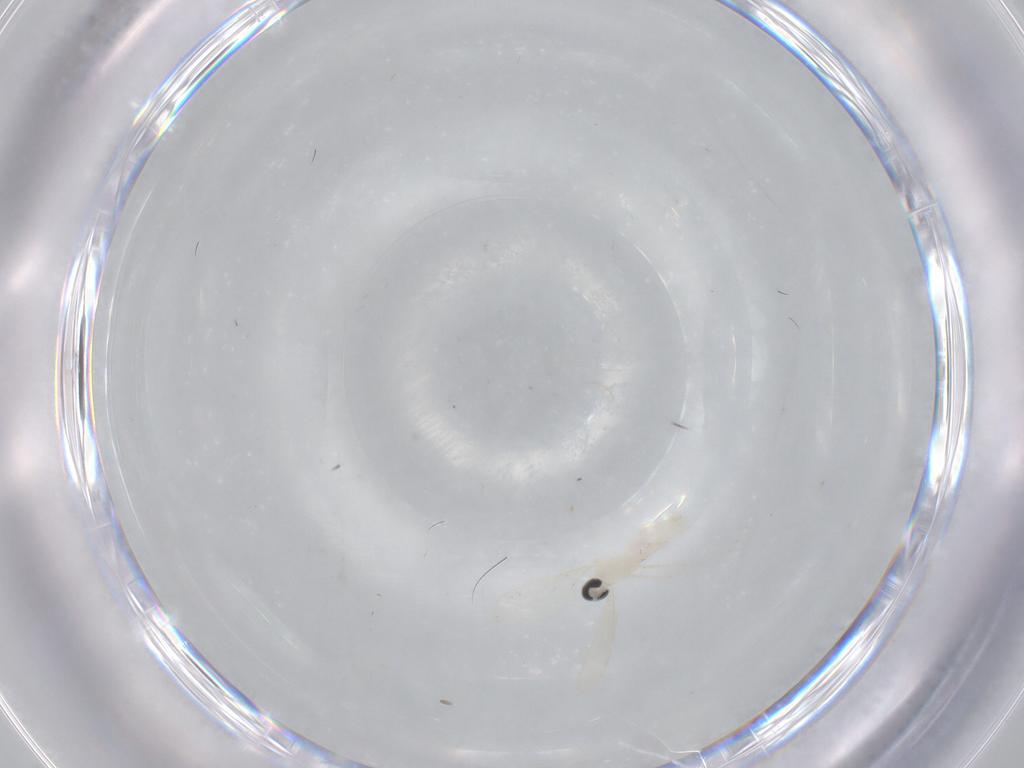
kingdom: Animalia
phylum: Arthropoda
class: Insecta
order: Diptera
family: Cecidomyiidae
